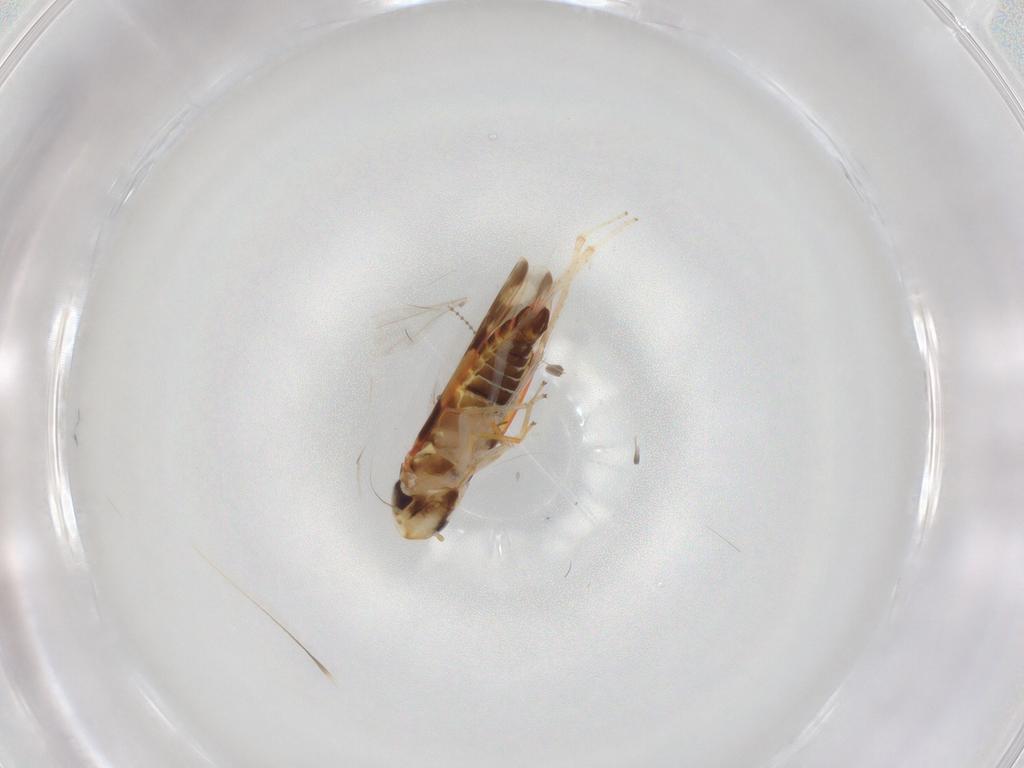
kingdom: Animalia
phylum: Arthropoda
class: Insecta
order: Hemiptera
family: Cicadellidae
